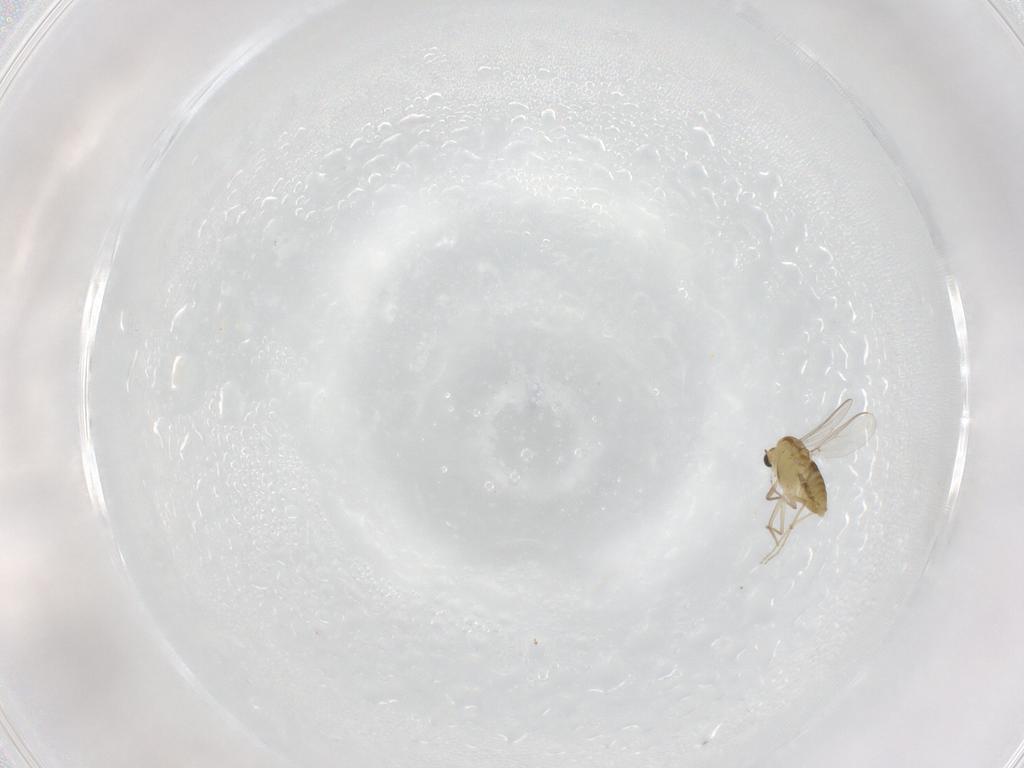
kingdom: Animalia
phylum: Arthropoda
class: Insecta
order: Diptera
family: Chironomidae
